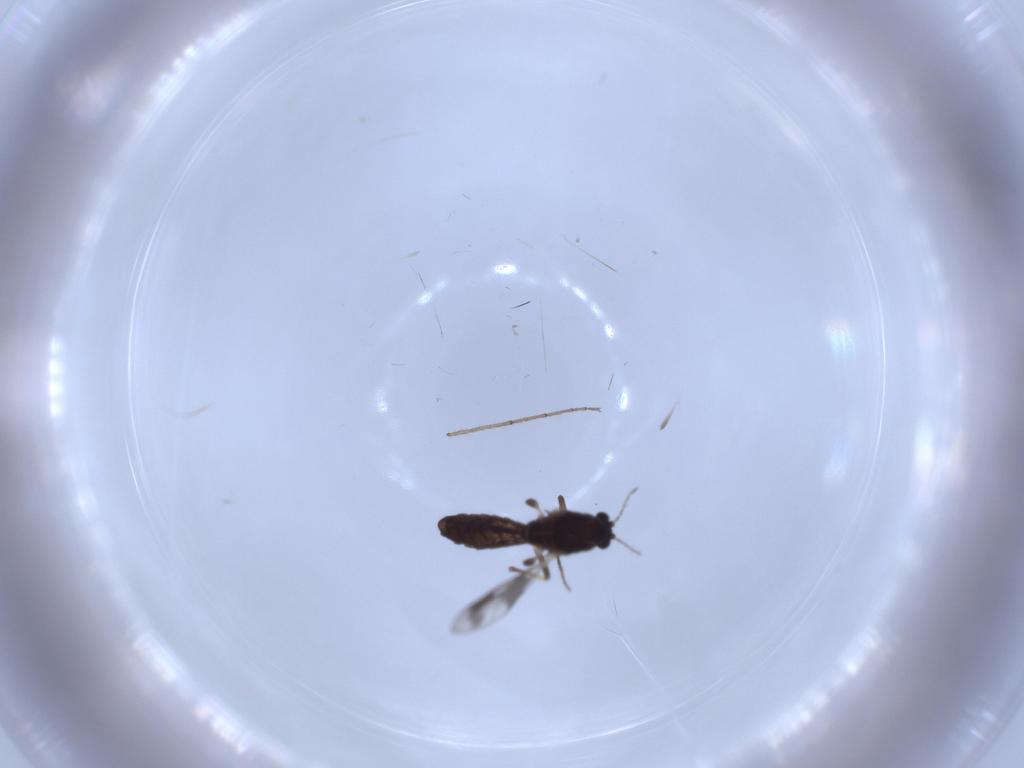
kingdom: Animalia
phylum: Arthropoda
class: Insecta
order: Diptera
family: Chironomidae
